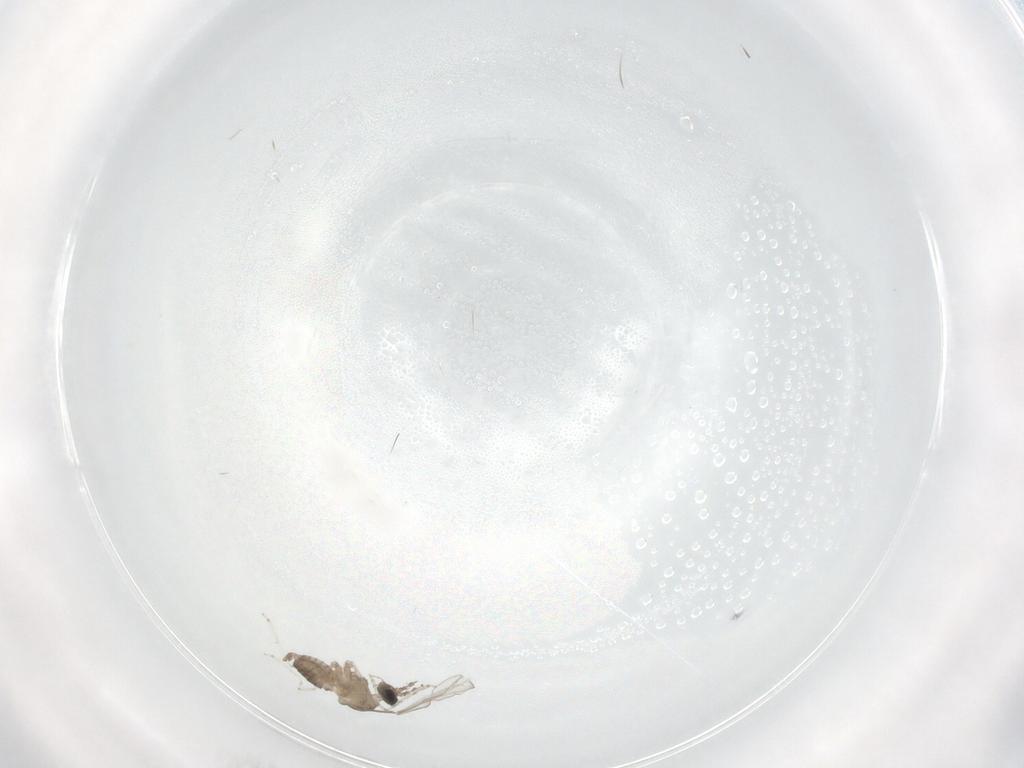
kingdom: Animalia
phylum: Arthropoda
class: Insecta
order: Diptera
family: Cecidomyiidae
